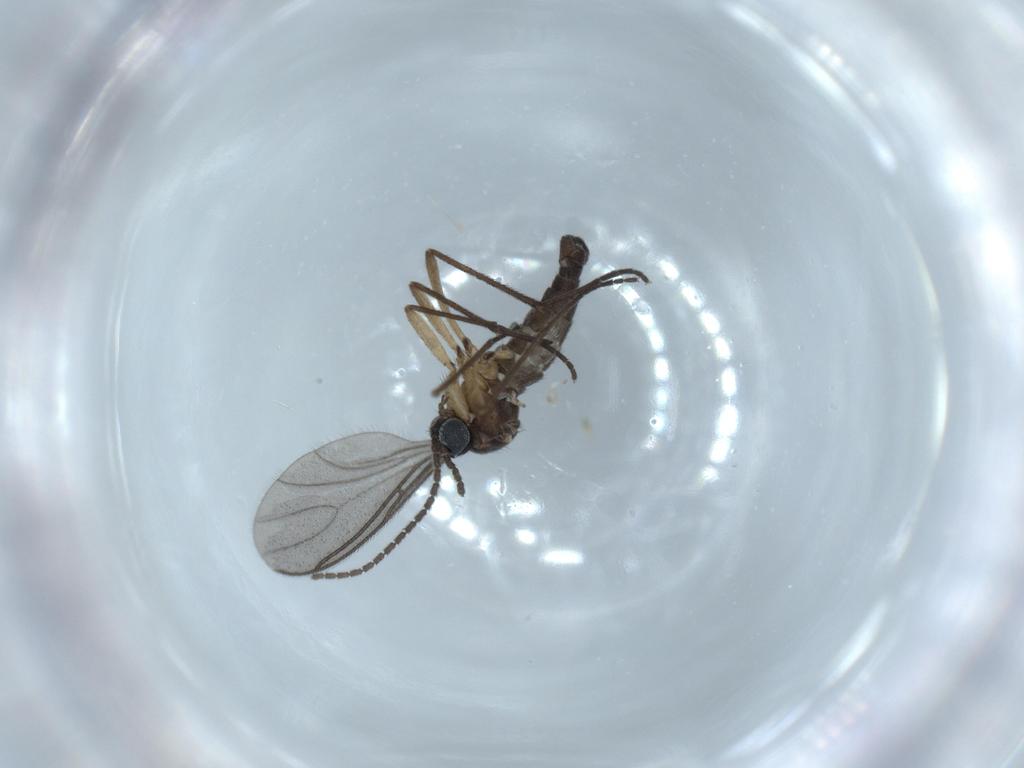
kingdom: Animalia
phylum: Arthropoda
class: Insecta
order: Diptera
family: Sciaridae
